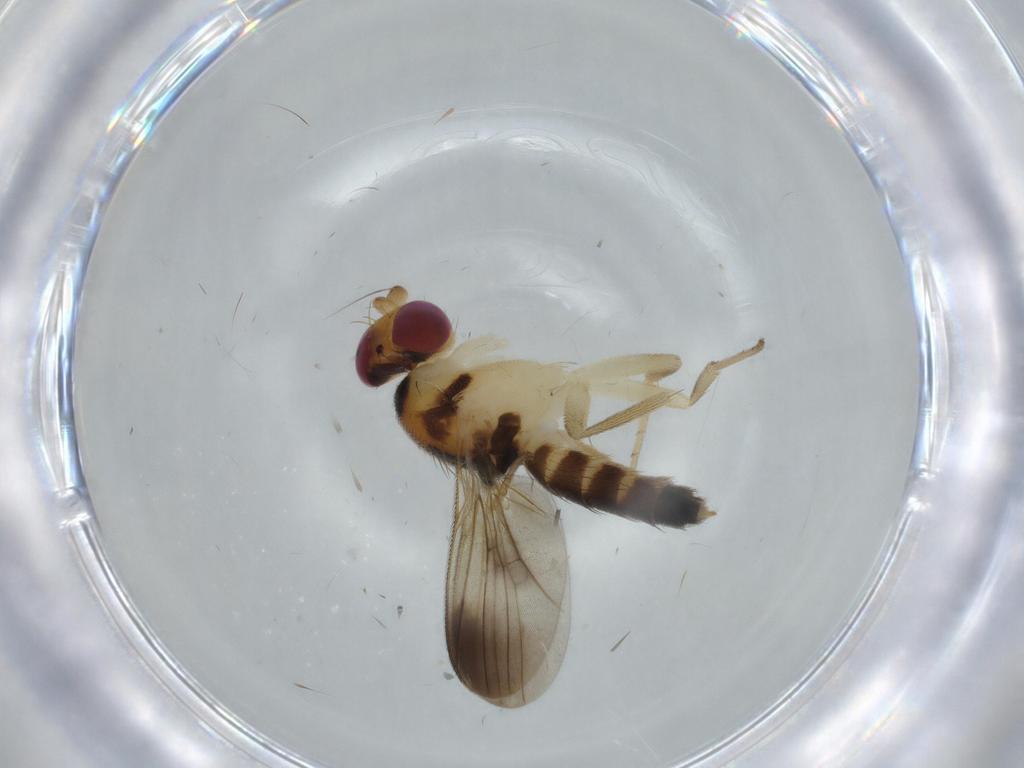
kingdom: Animalia
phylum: Arthropoda
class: Insecta
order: Diptera
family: Clusiidae
